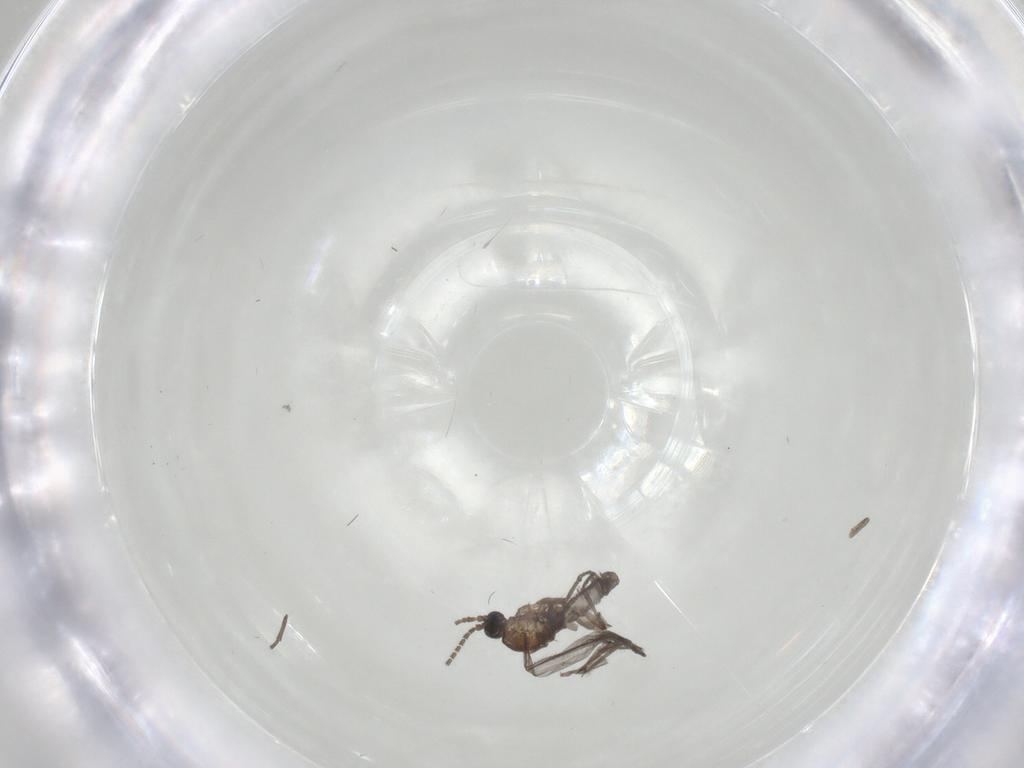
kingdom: Animalia
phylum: Arthropoda
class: Insecta
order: Diptera
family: Sciaridae
